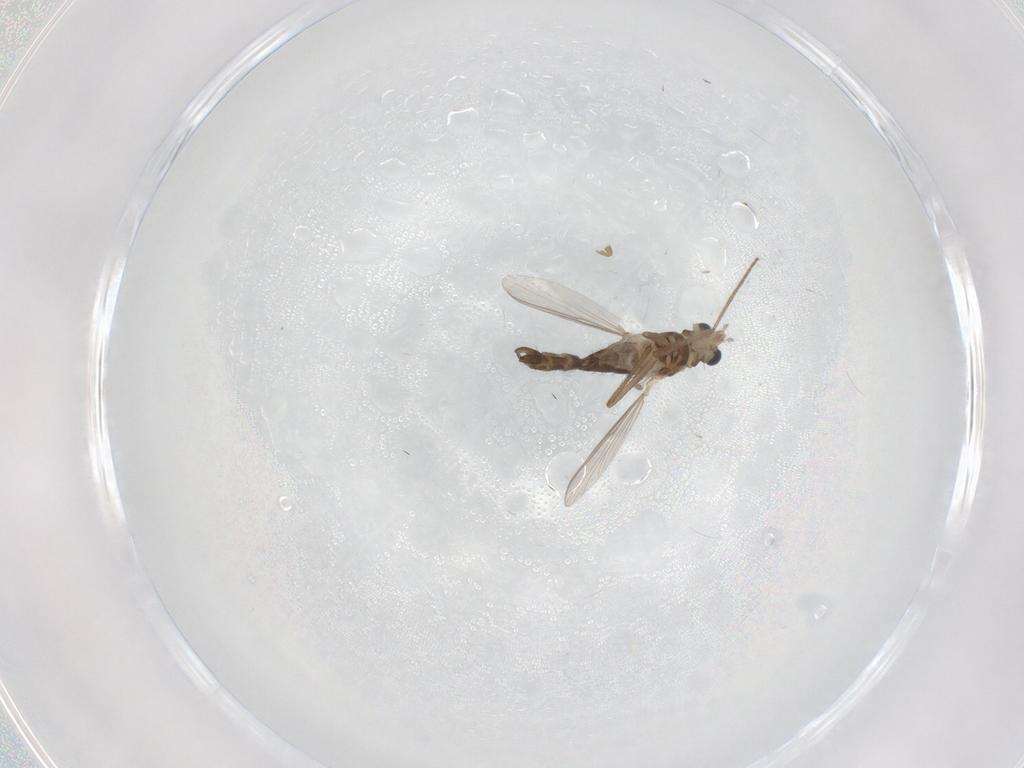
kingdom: Animalia
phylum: Arthropoda
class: Insecta
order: Diptera
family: Chironomidae
